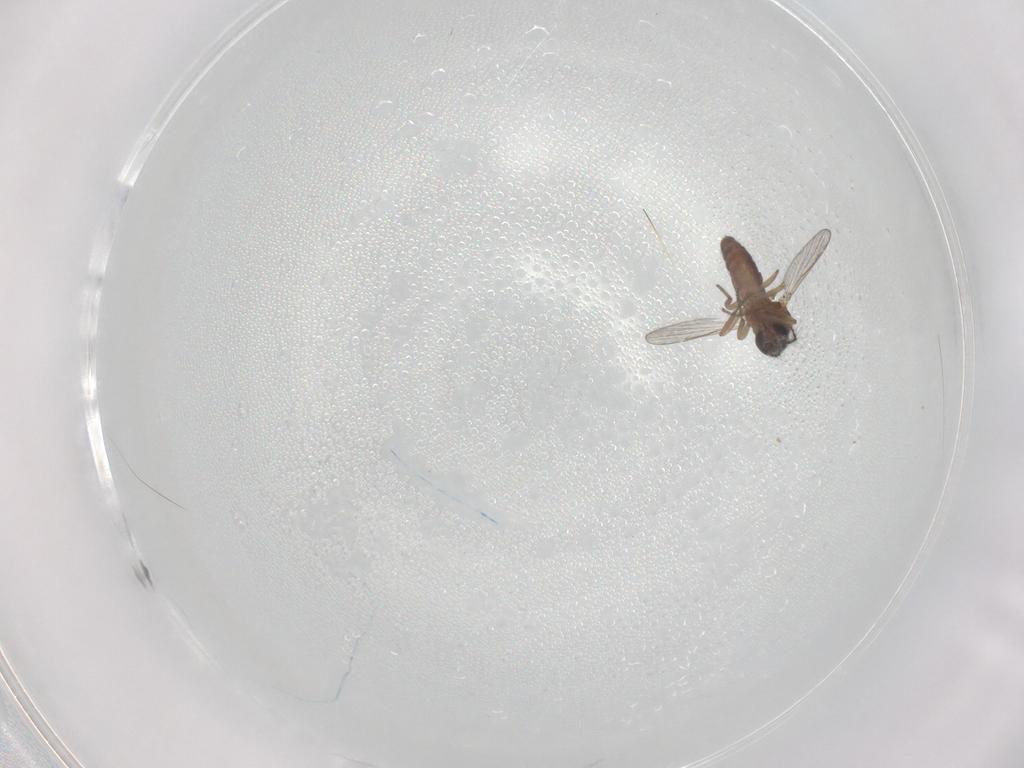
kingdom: Animalia
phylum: Arthropoda
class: Insecta
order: Diptera
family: Ceratopogonidae
